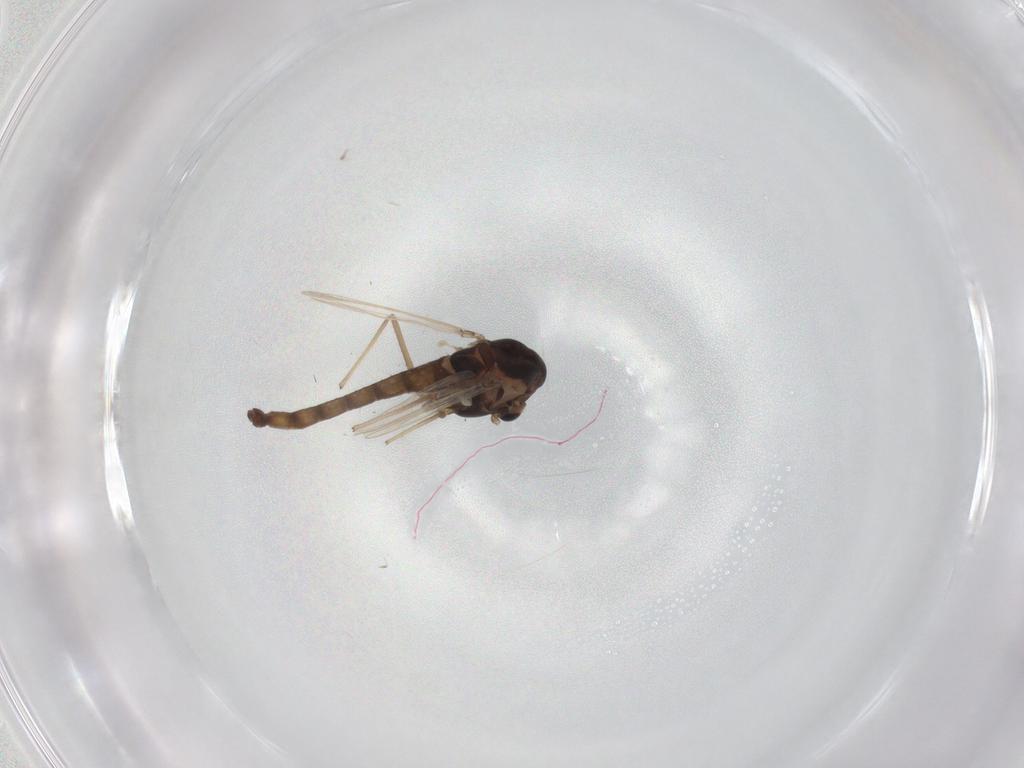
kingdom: Animalia
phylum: Arthropoda
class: Insecta
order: Diptera
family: Chironomidae
